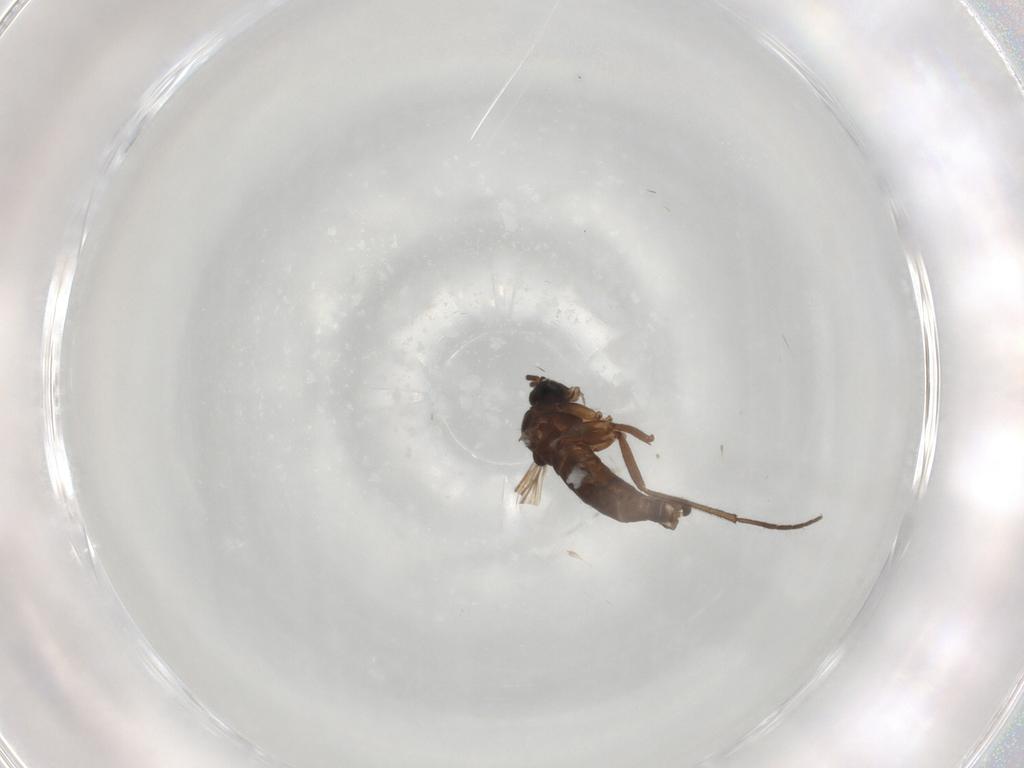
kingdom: Animalia
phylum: Arthropoda
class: Insecta
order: Diptera
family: Sciaridae
